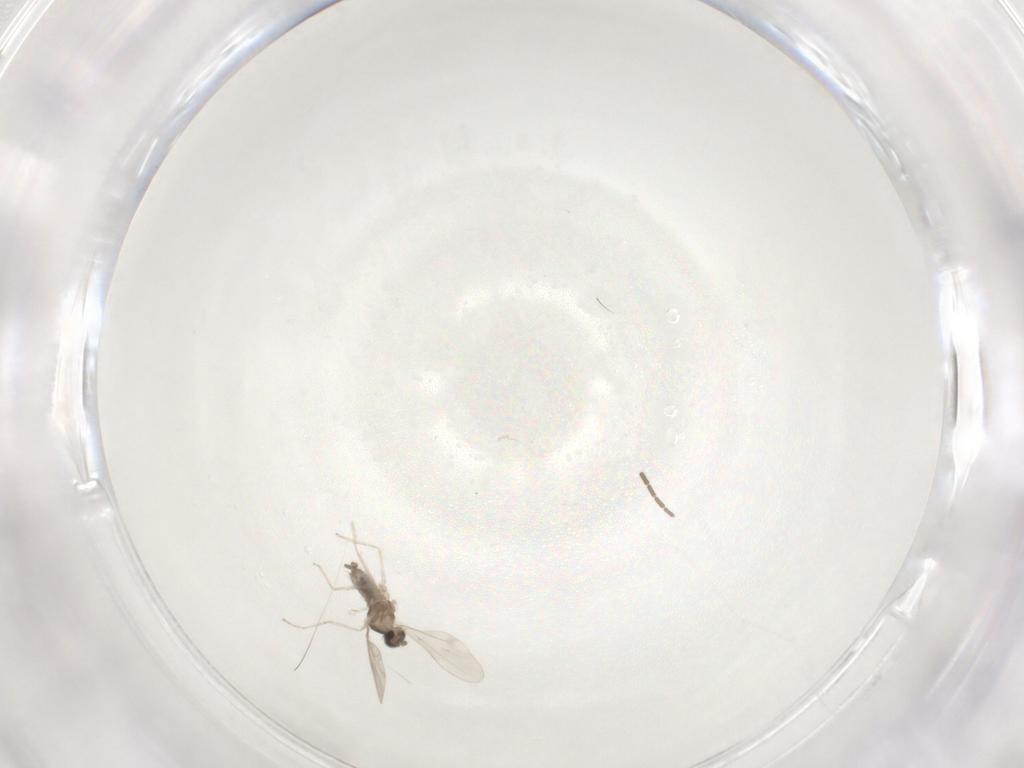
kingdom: Animalia
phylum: Arthropoda
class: Insecta
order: Diptera
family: Cecidomyiidae
